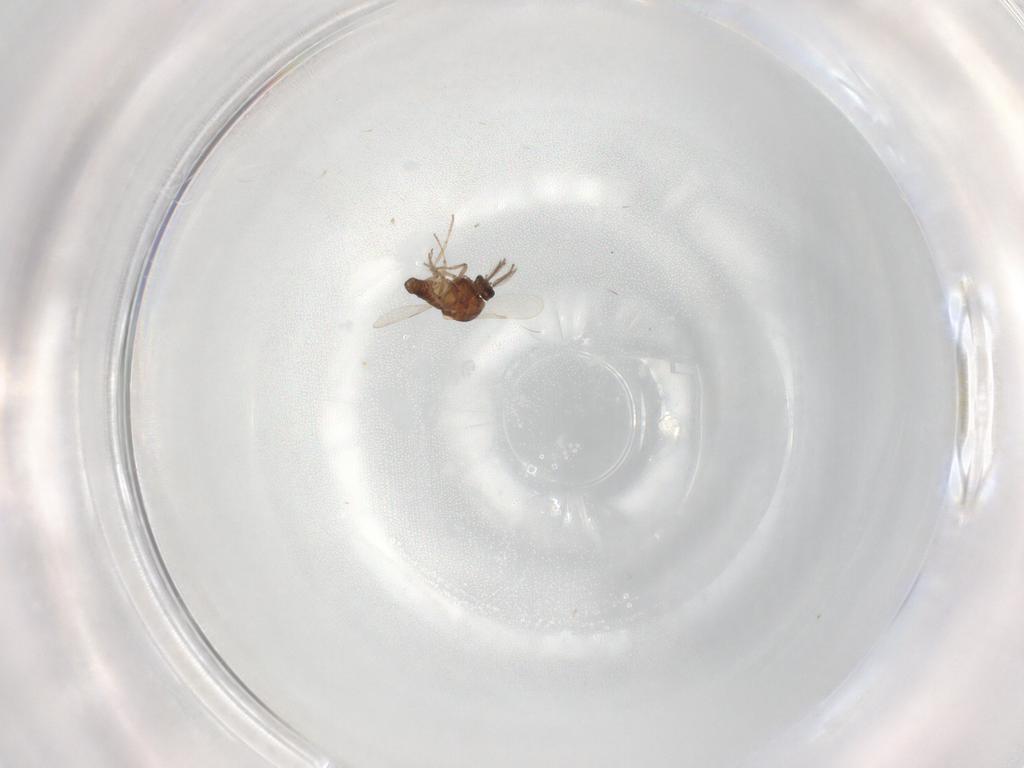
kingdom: Animalia
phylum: Arthropoda
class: Insecta
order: Diptera
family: Ceratopogonidae
